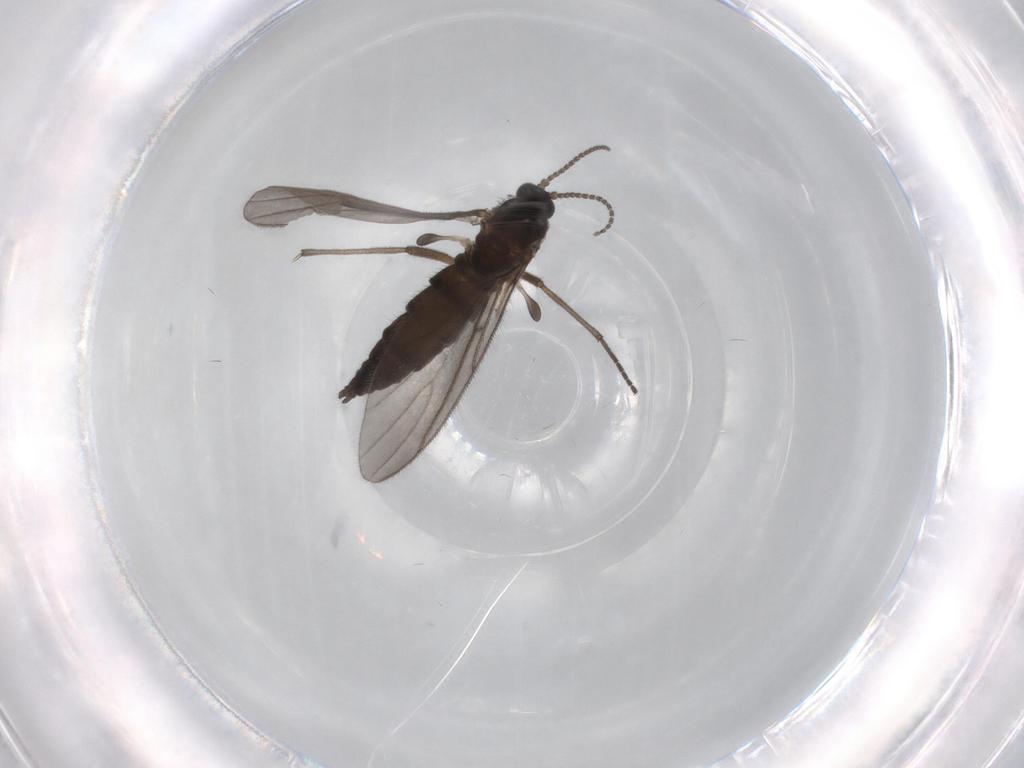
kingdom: Animalia
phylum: Arthropoda
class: Insecta
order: Diptera
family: Sciaridae
